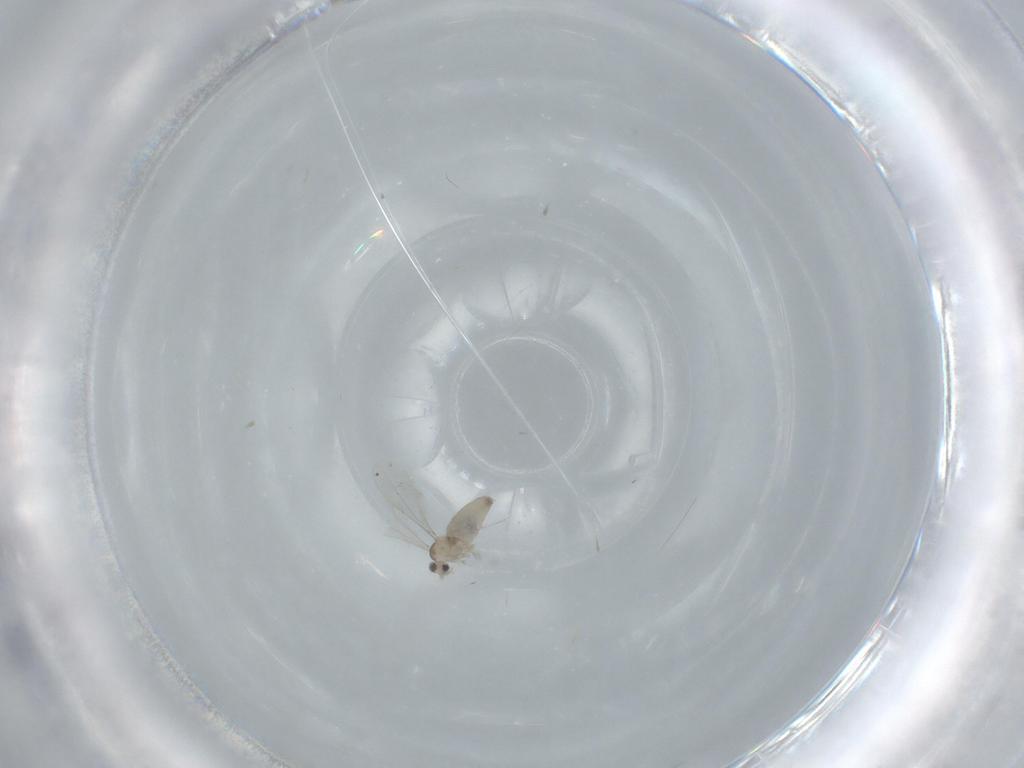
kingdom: Animalia
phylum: Arthropoda
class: Insecta
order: Diptera
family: Cecidomyiidae
